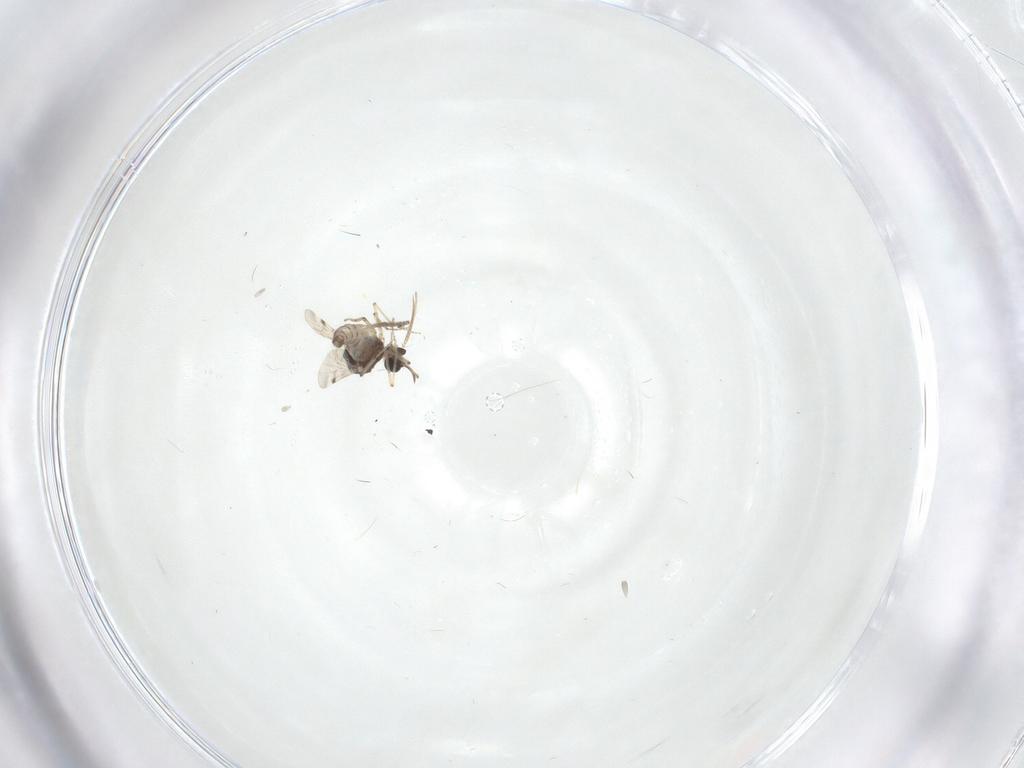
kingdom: Animalia
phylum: Arthropoda
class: Insecta
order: Diptera
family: Psychodidae
